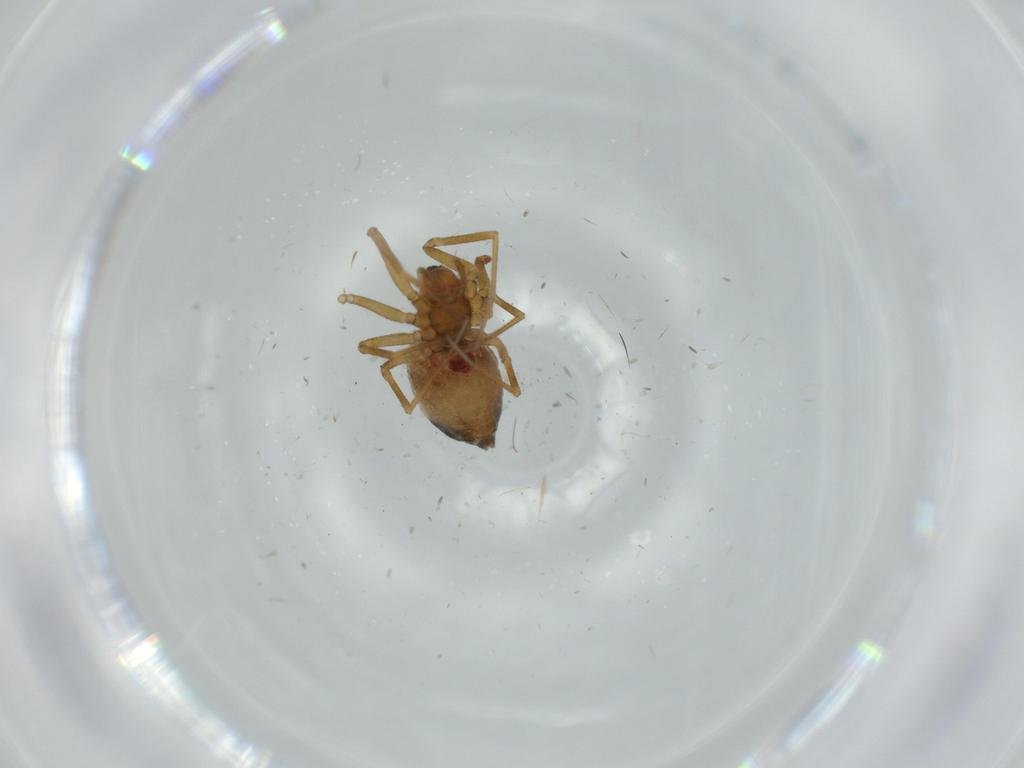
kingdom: Animalia
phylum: Arthropoda
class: Arachnida
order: Araneae
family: Linyphiidae
